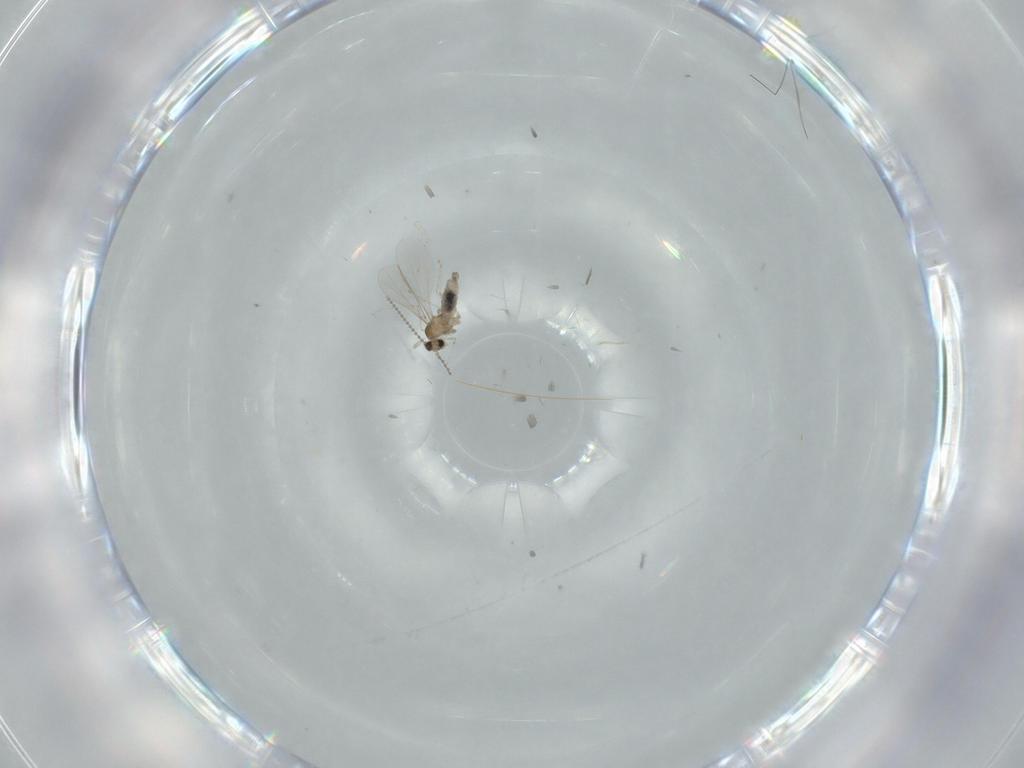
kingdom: Animalia
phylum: Arthropoda
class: Insecta
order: Diptera
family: Cecidomyiidae
